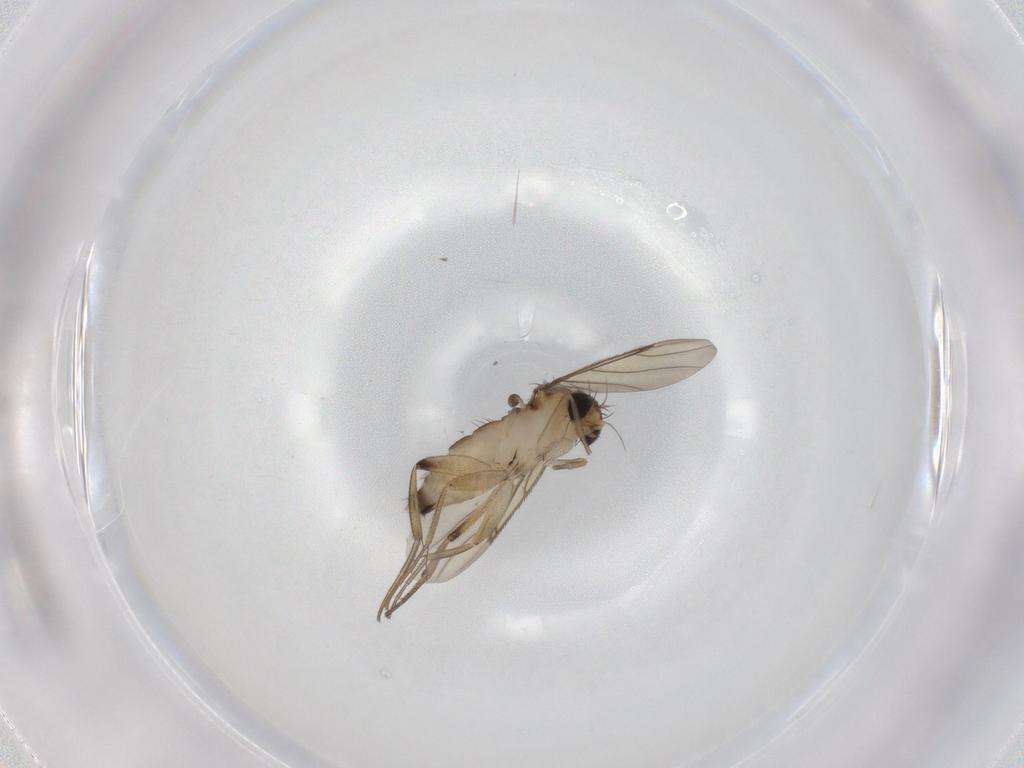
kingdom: Animalia
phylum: Arthropoda
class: Insecta
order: Diptera
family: Phoridae
